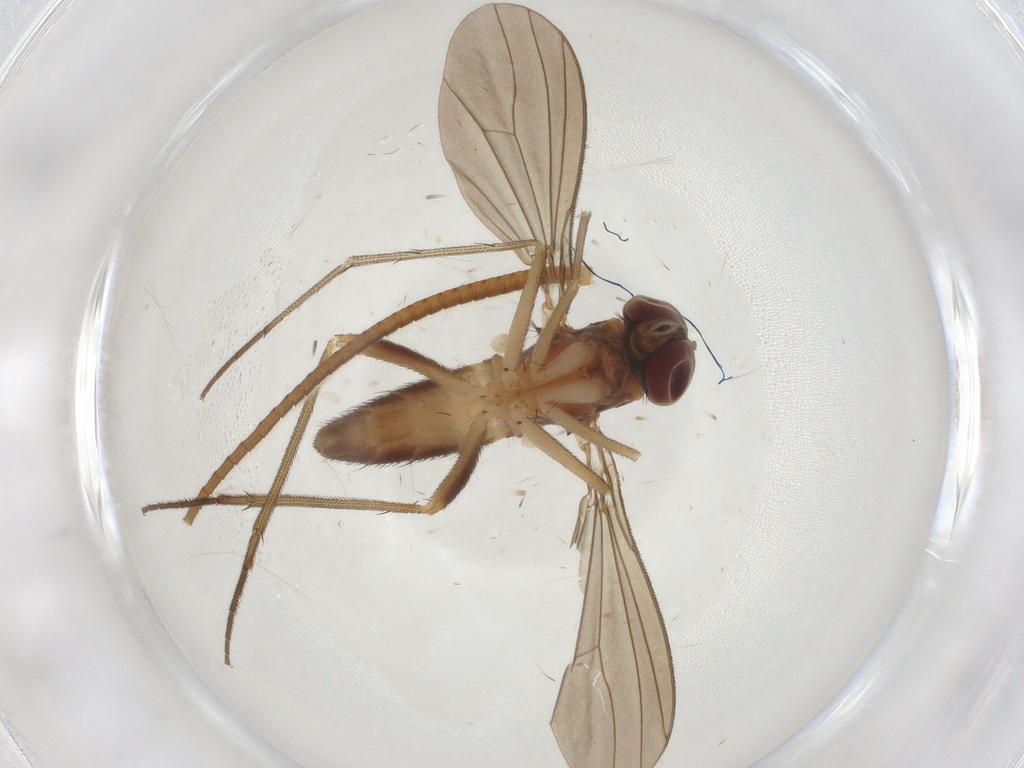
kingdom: Animalia
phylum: Arthropoda
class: Insecta
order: Diptera
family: Dolichopodidae
